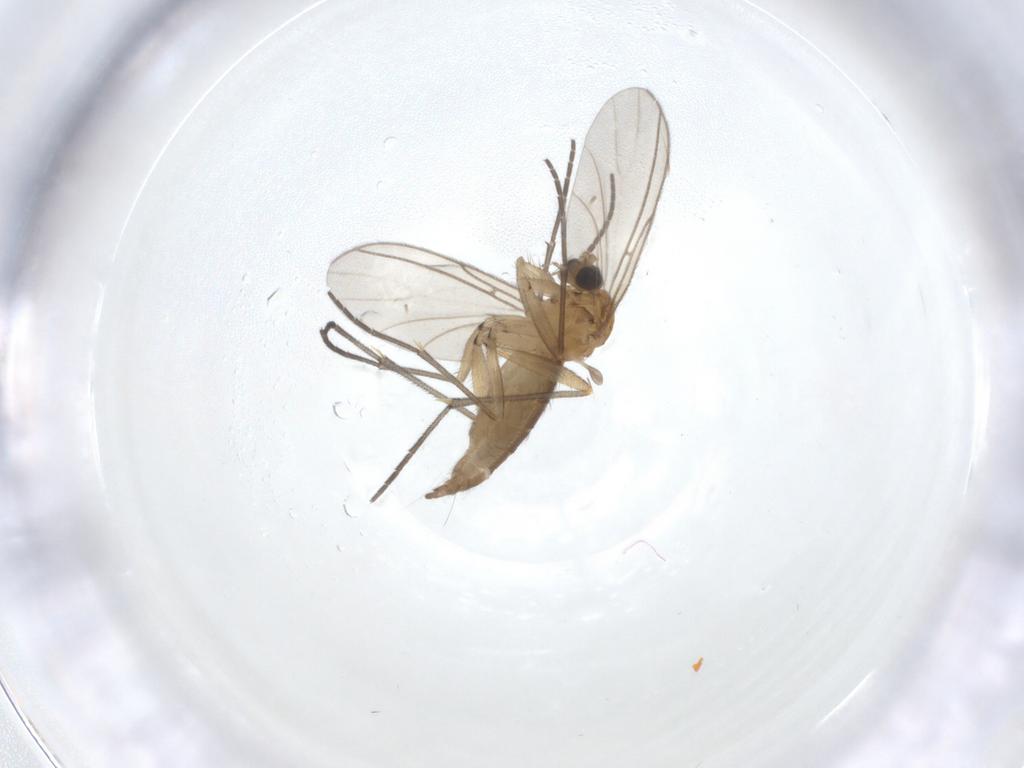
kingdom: Animalia
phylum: Arthropoda
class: Insecta
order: Diptera
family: Sciaridae
